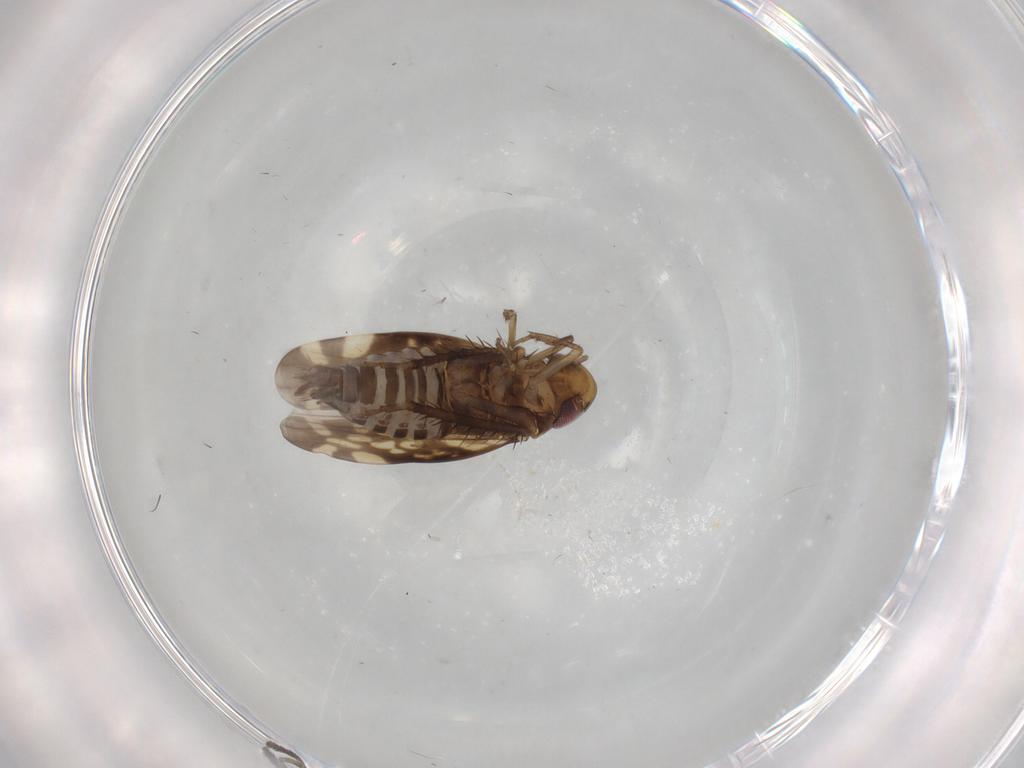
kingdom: Animalia
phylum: Arthropoda
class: Insecta
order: Hemiptera
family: Cicadellidae
